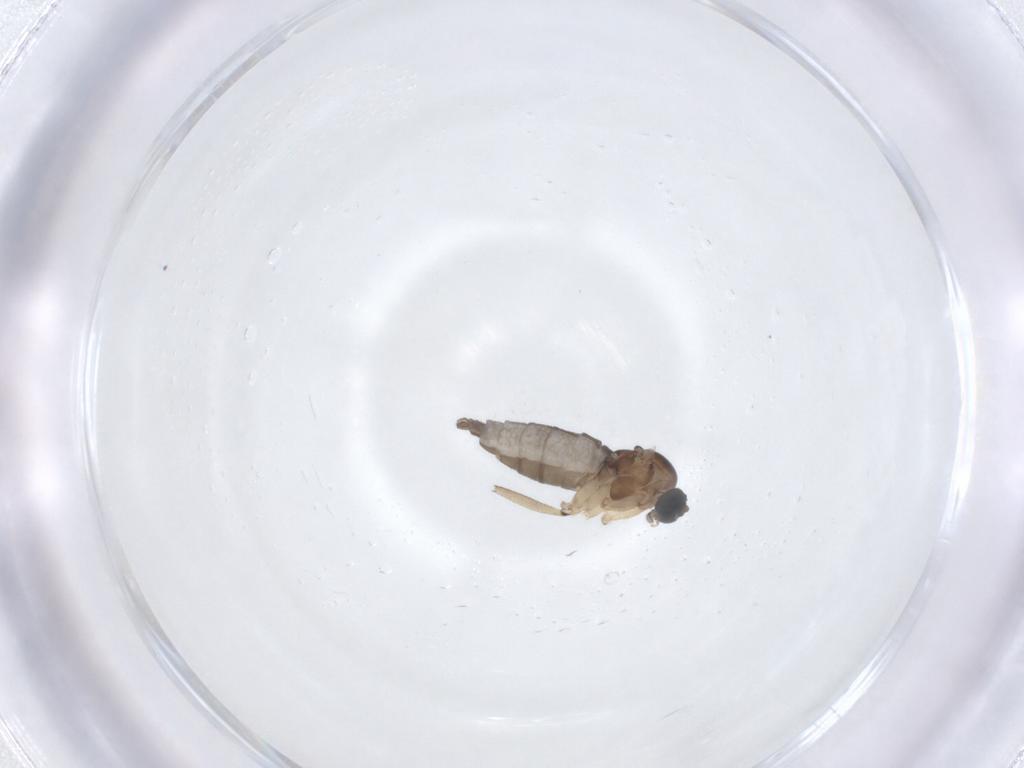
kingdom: Animalia
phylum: Arthropoda
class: Insecta
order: Diptera
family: Sciaridae
